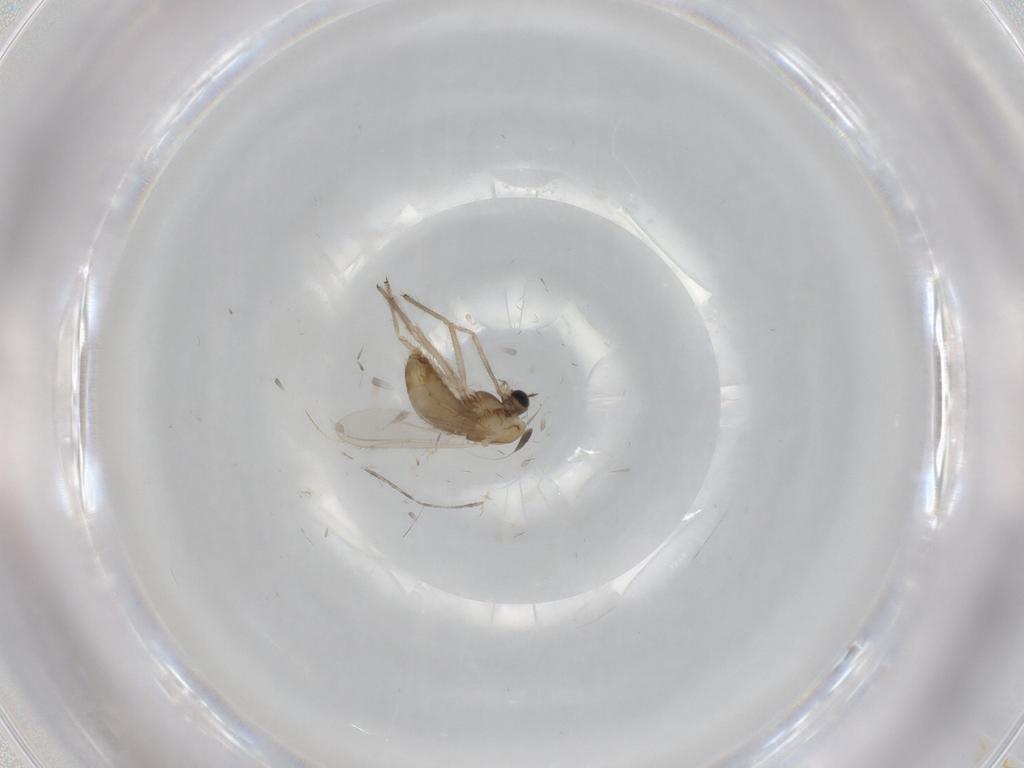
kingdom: Animalia
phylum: Arthropoda
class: Insecta
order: Diptera
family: Chironomidae
